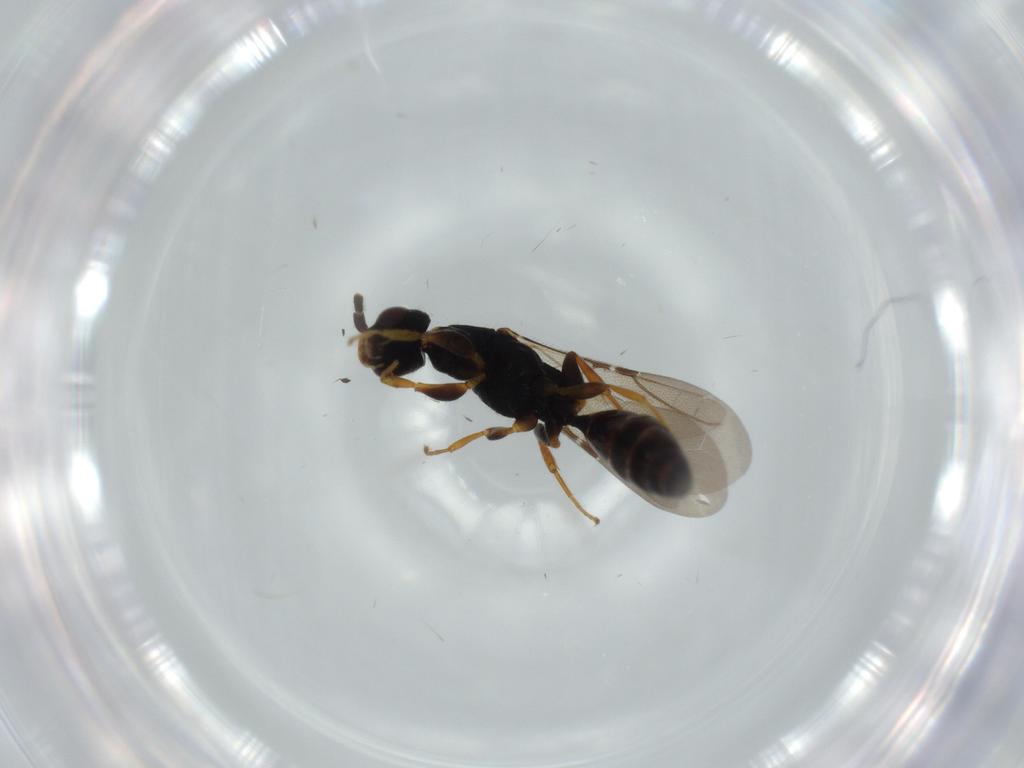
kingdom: Animalia
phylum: Arthropoda
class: Insecta
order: Hymenoptera
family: Bethylidae
